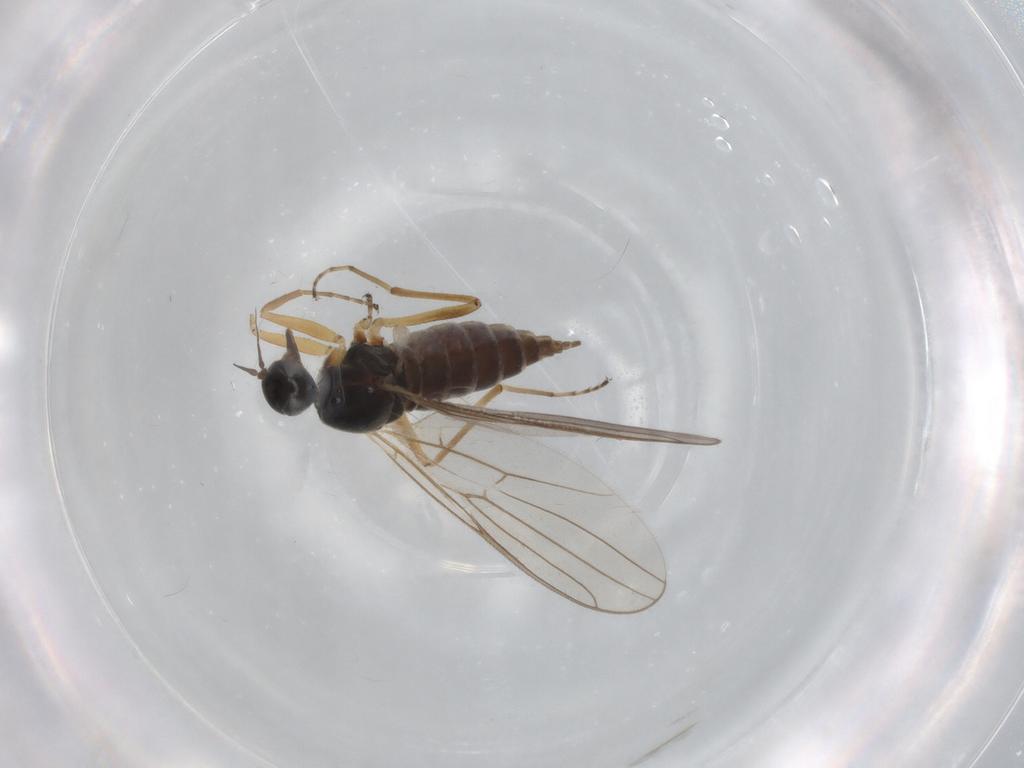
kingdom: Animalia
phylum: Arthropoda
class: Insecta
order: Diptera
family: Hybotidae
